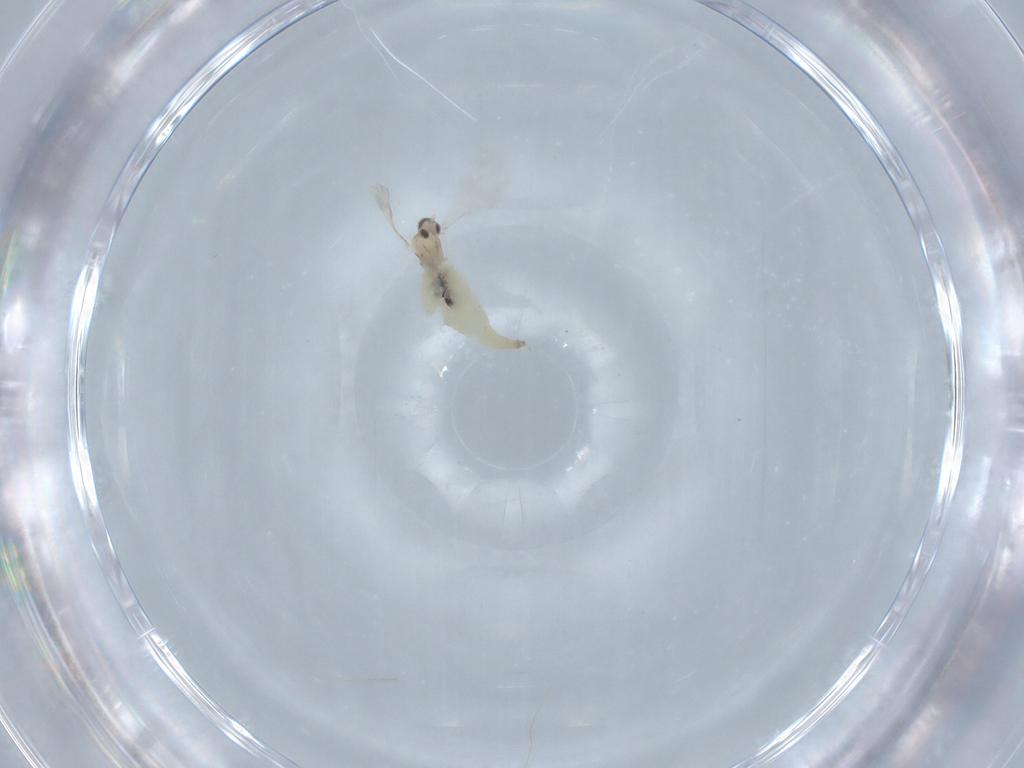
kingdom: Animalia
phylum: Arthropoda
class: Insecta
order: Diptera
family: Cecidomyiidae
